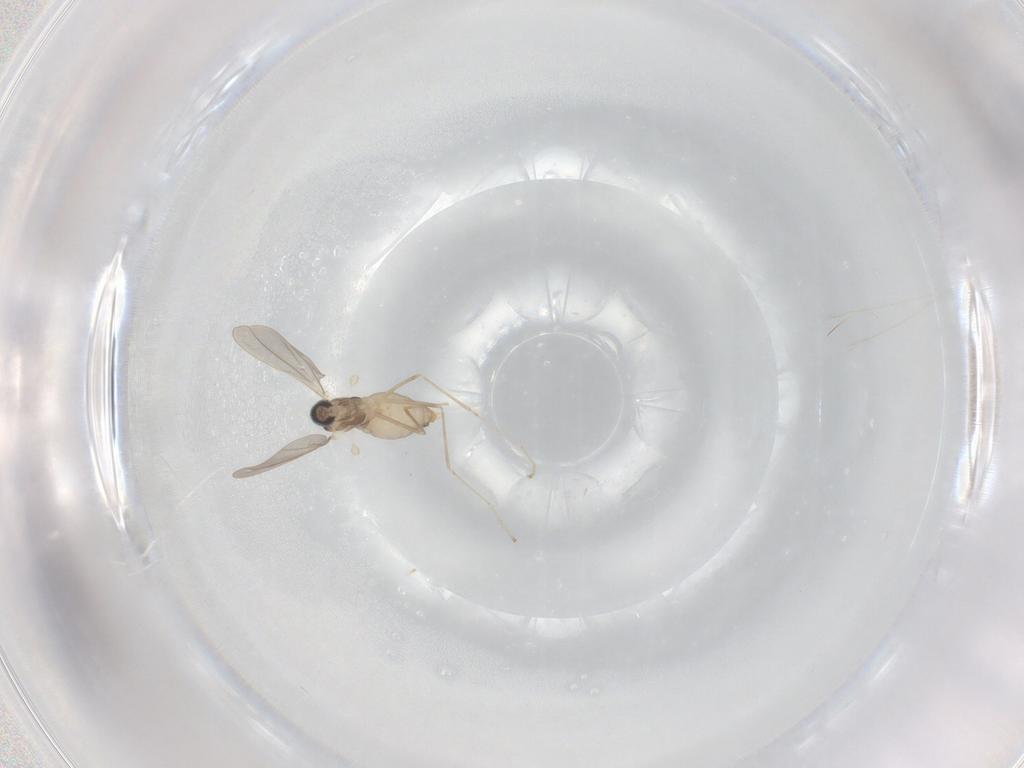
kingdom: Animalia
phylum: Arthropoda
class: Insecta
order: Diptera
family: Cecidomyiidae
